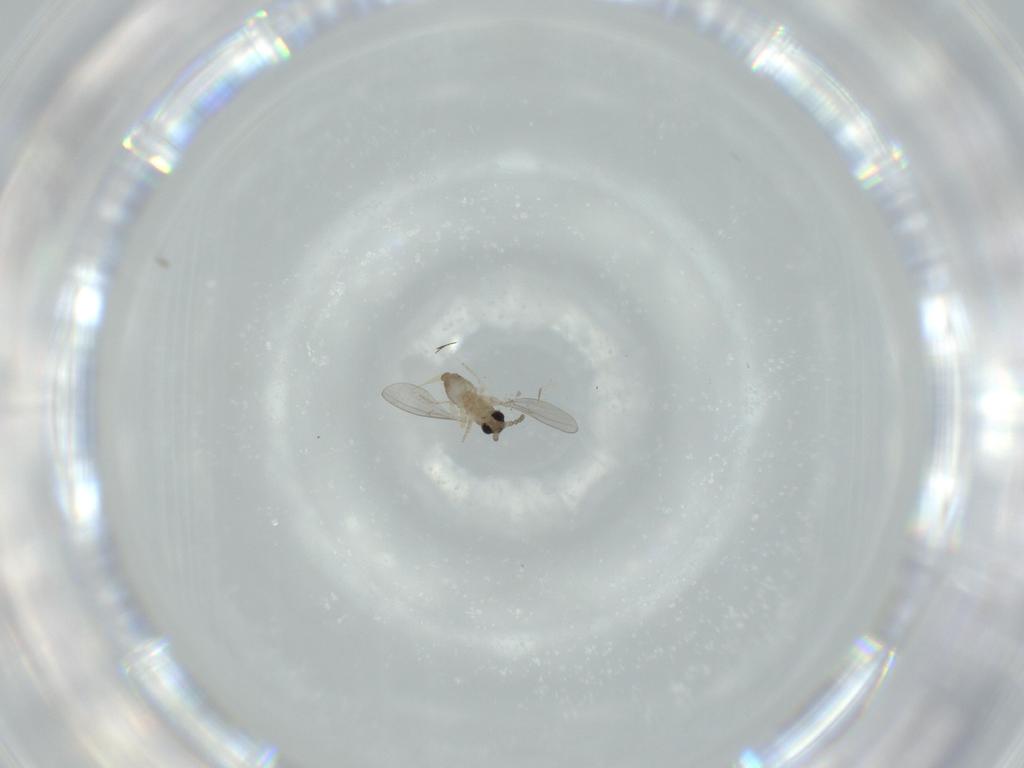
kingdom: Animalia
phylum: Arthropoda
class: Insecta
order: Diptera
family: Cecidomyiidae
